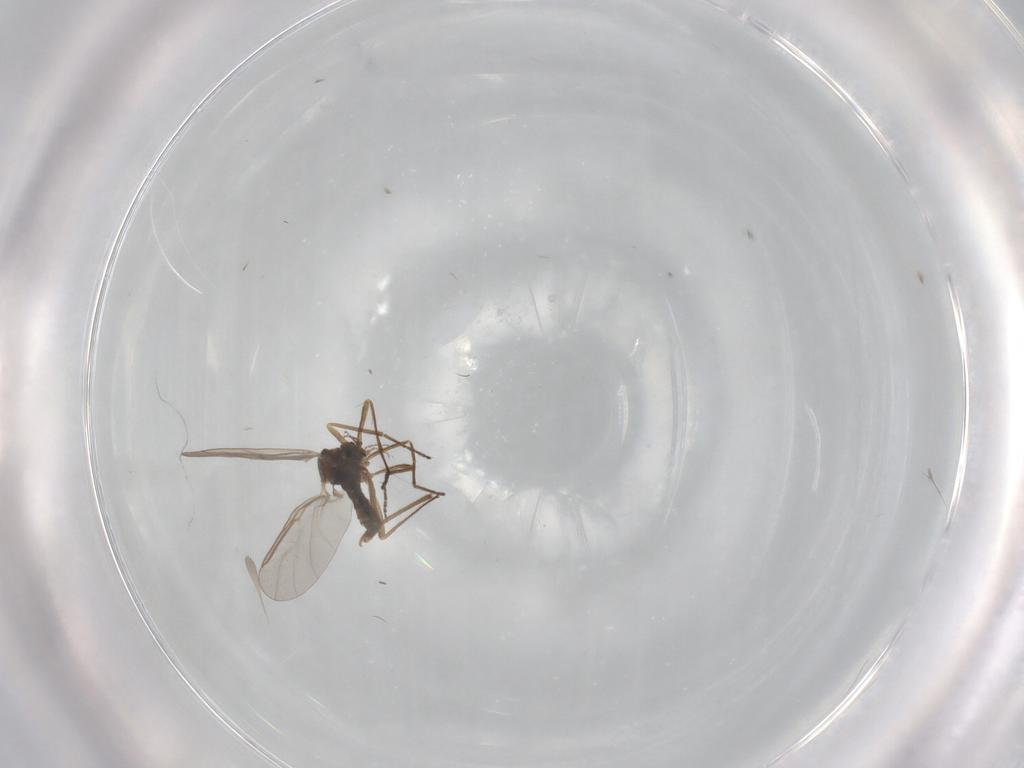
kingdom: Animalia
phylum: Arthropoda
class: Insecta
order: Diptera
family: Cecidomyiidae
